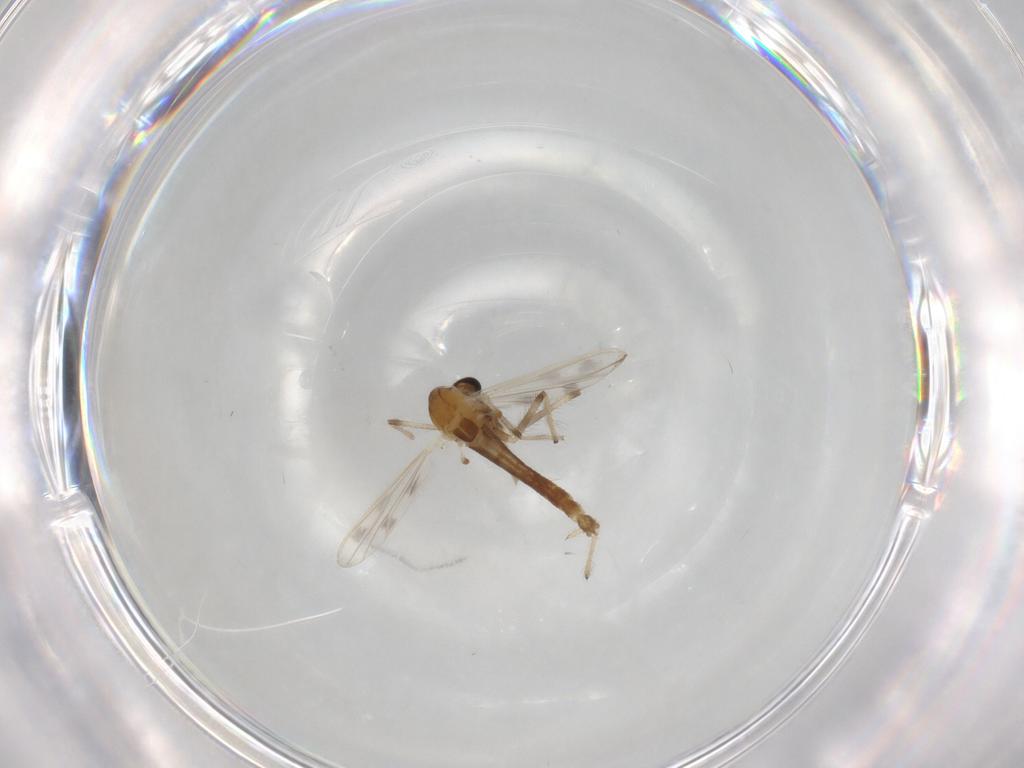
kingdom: Animalia
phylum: Arthropoda
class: Insecta
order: Diptera
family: Chironomidae
